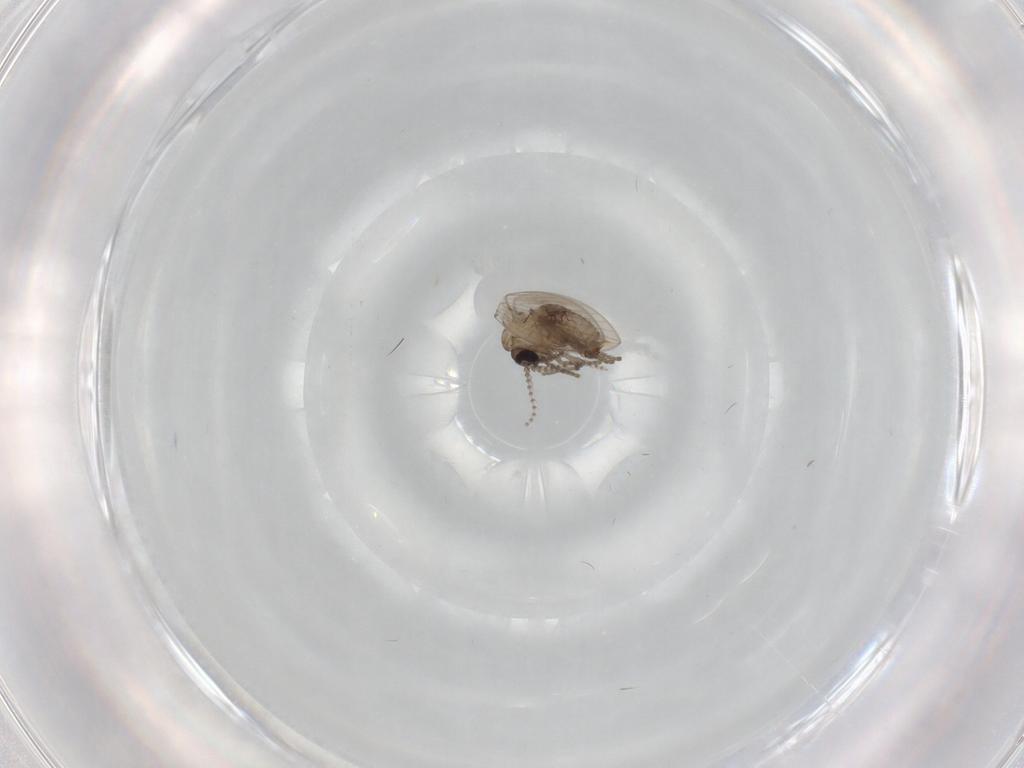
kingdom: Animalia
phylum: Arthropoda
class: Insecta
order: Diptera
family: Psychodidae
